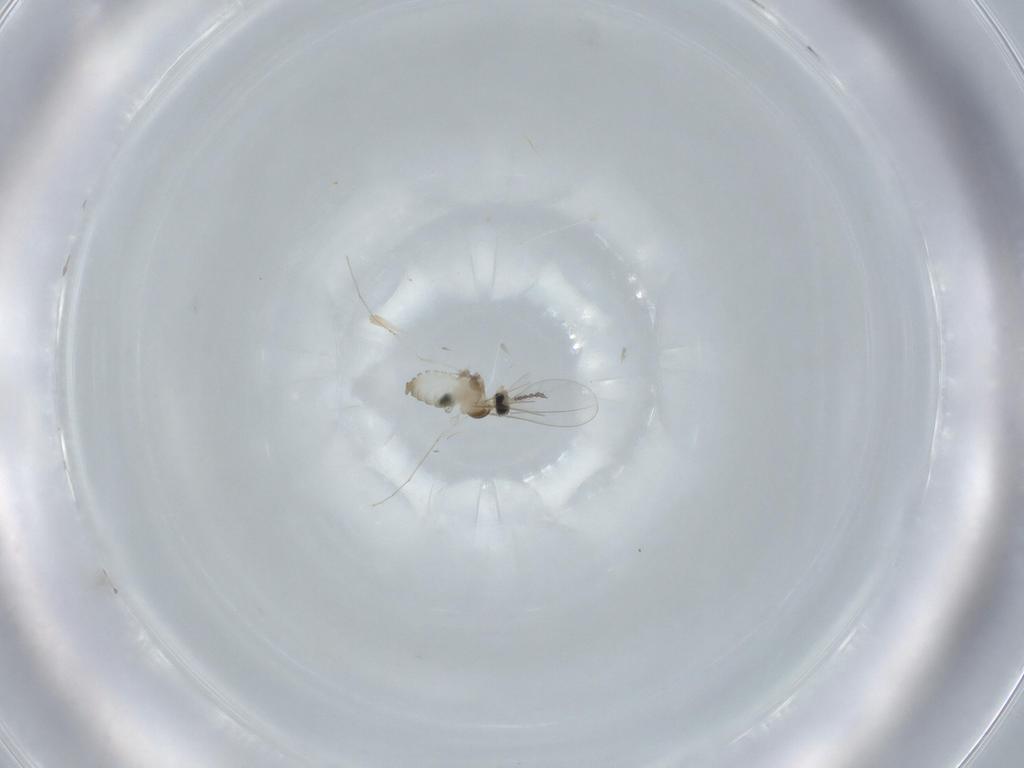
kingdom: Animalia
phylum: Arthropoda
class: Insecta
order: Diptera
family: Cecidomyiidae
